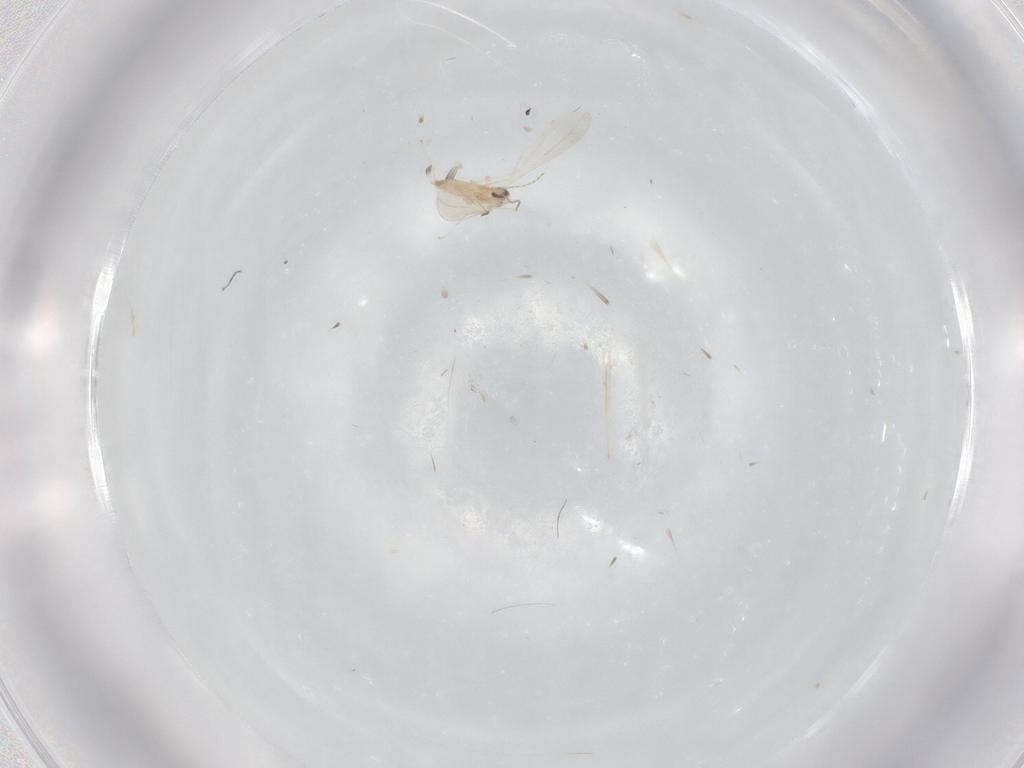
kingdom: Animalia
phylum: Arthropoda
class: Insecta
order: Diptera
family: Cecidomyiidae
